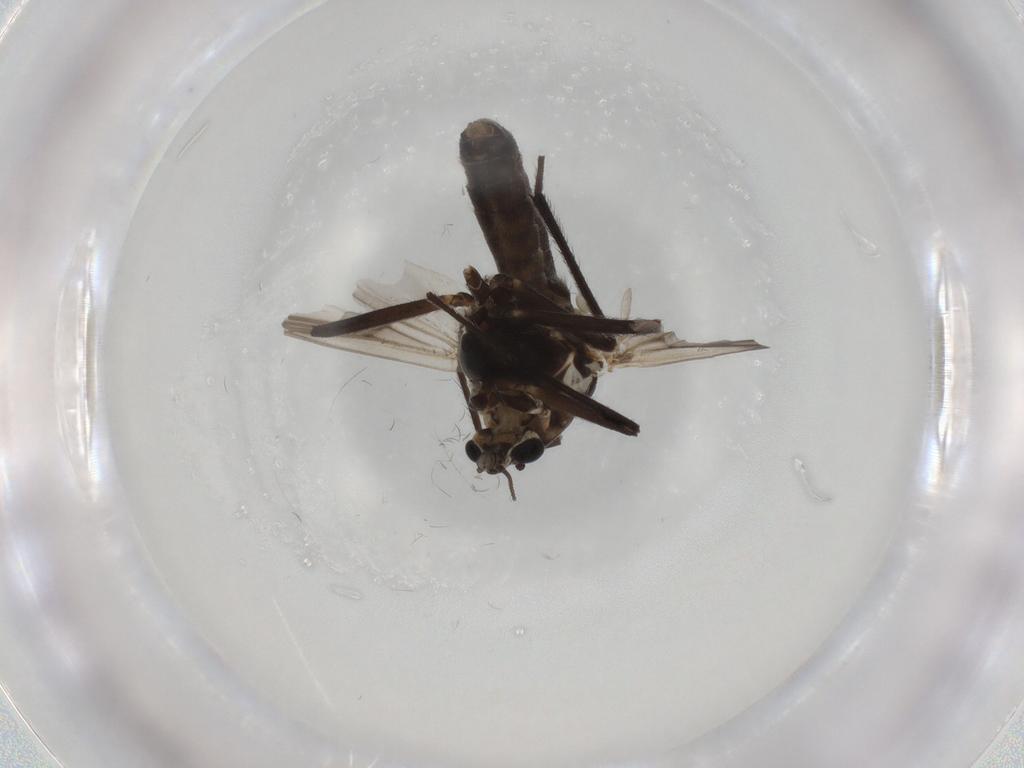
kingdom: Animalia
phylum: Arthropoda
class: Insecta
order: Diptera
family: Chironomidae
